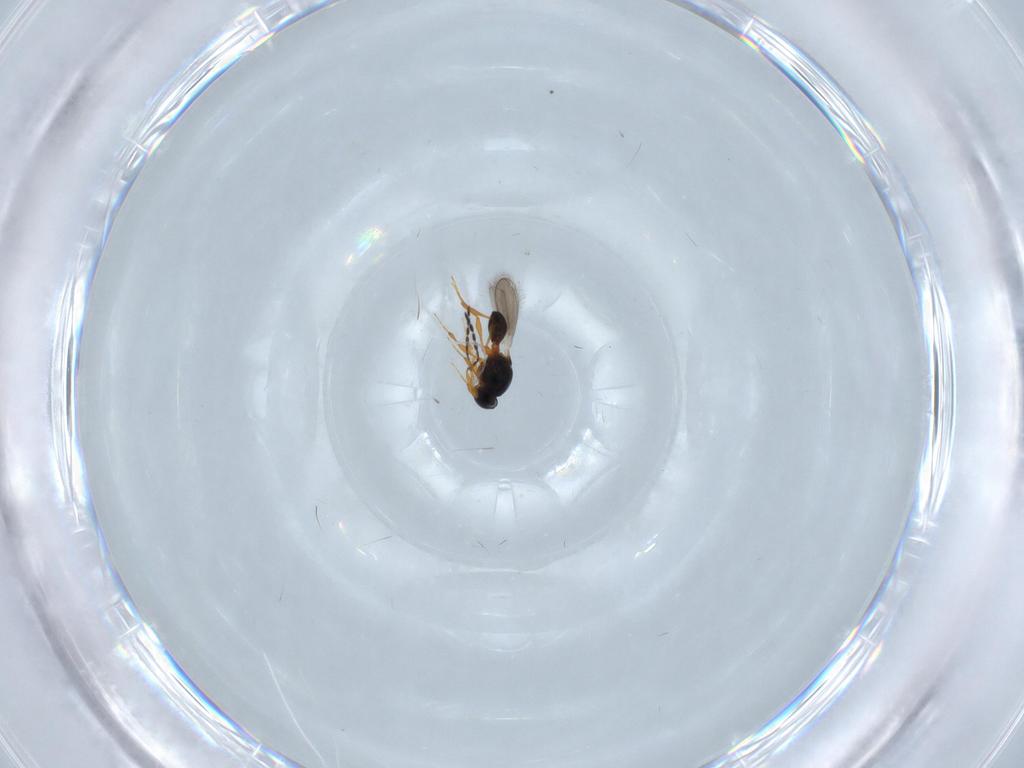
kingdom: Animalia
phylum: Arthropoda
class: Insecta
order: Hymenoptera
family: Platygastridae
